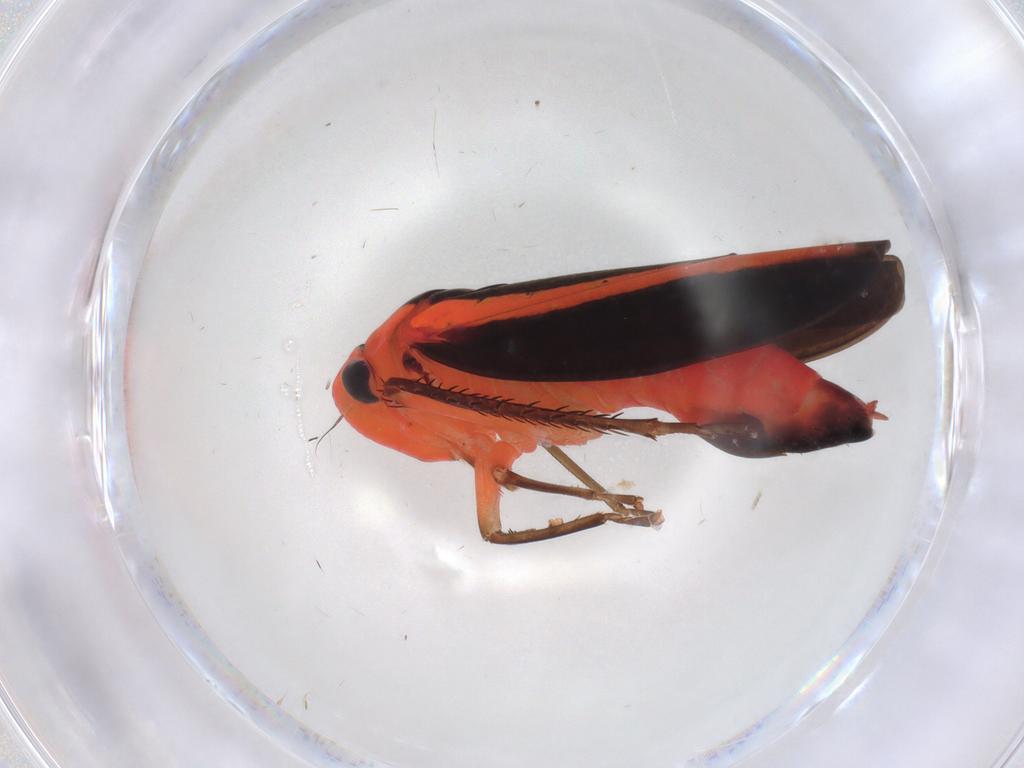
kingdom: Animalia
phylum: Arthropoda
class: Insecta
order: Hemiptera
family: Cicadellidae
